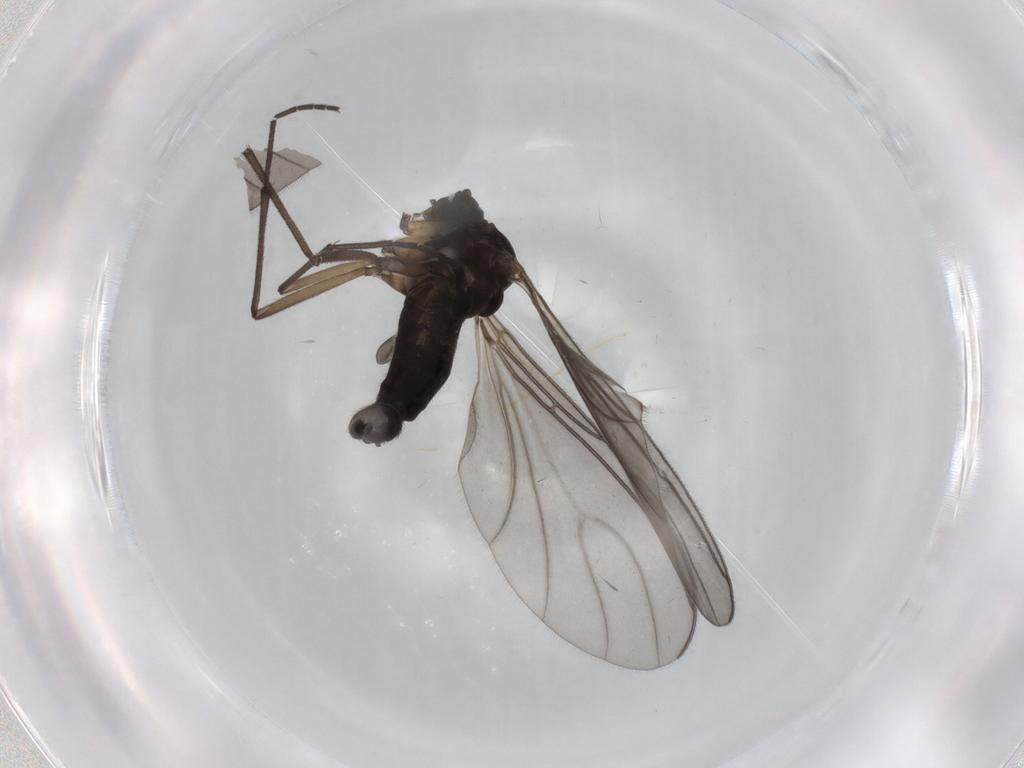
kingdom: Animalia
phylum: Arthropoda
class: Insecta
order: Diptera
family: Sciaridae
